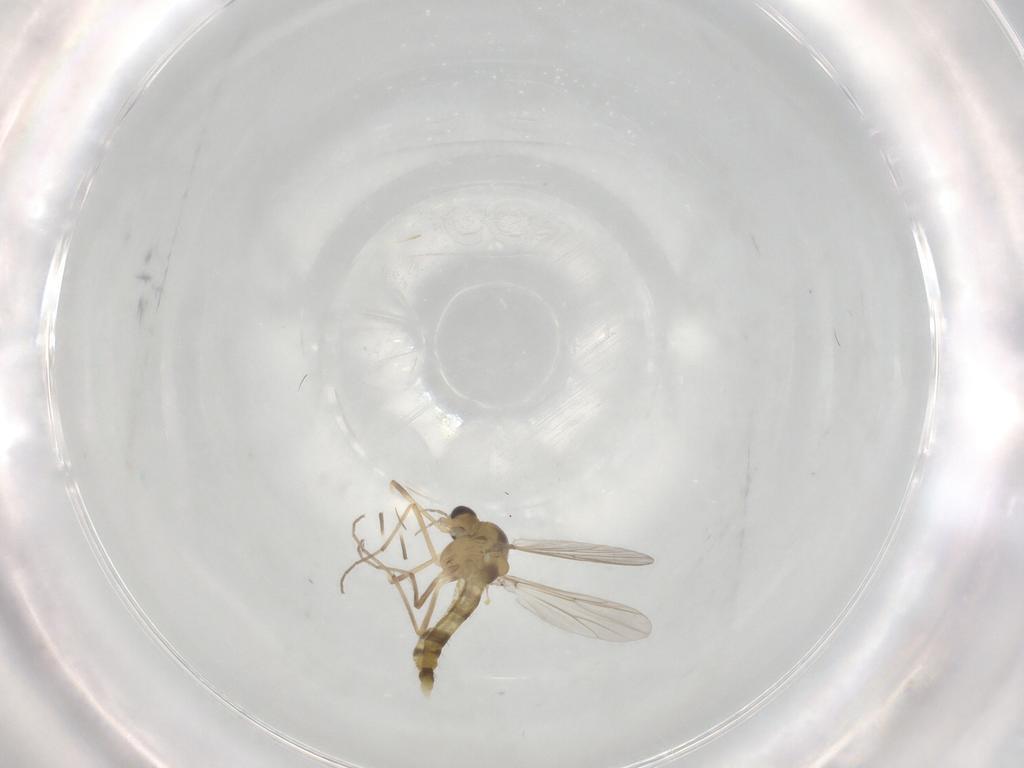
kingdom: Animalia
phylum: Arthropoda
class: Insecta
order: Diptera
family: Chironomidae
